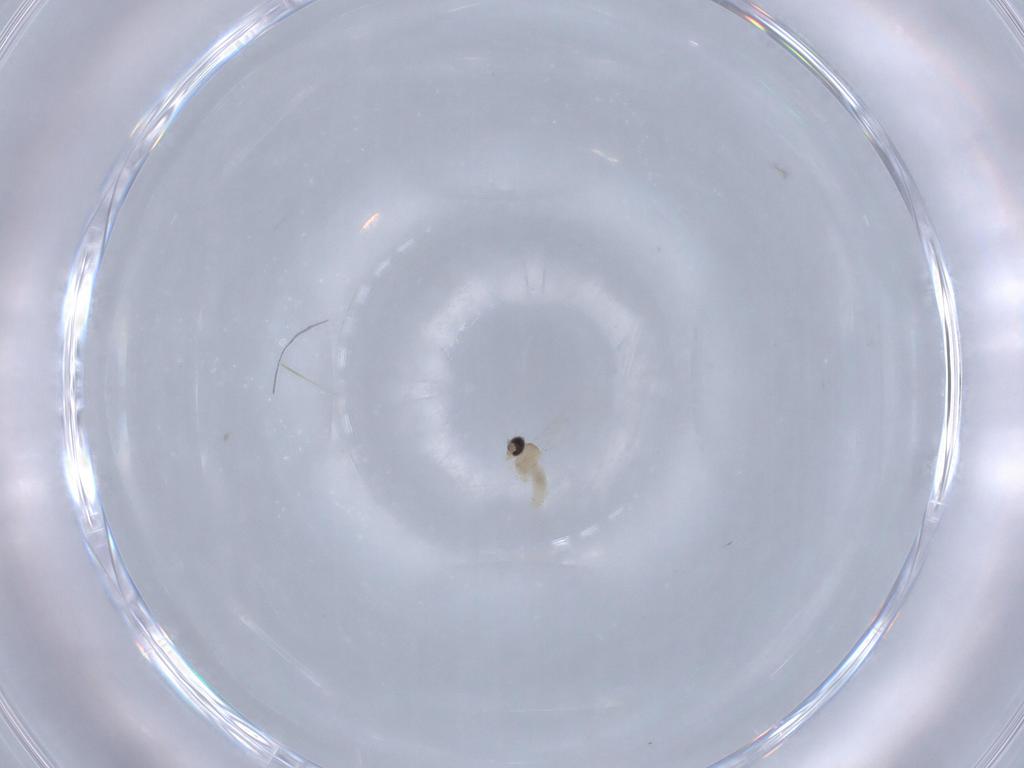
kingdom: Animalia
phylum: Arthropoda
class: Insecta
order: Diptera
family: Cecidomyiidae
